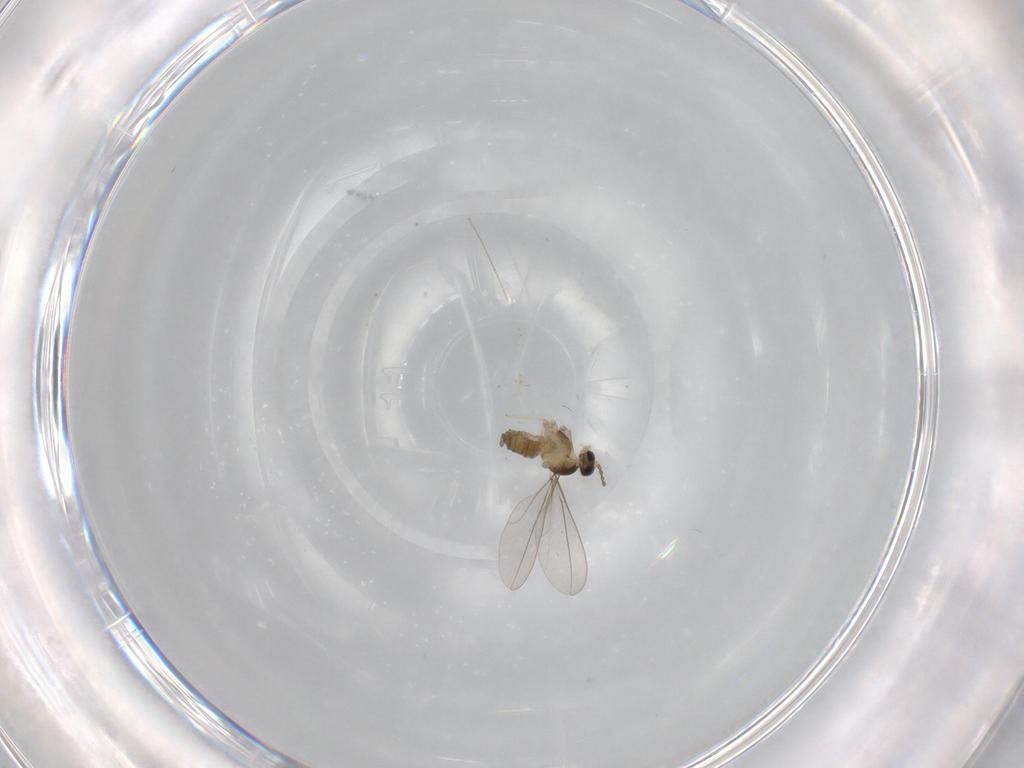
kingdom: Animalia
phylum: Arthropoda
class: Insecta
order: Diptera
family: Cecidomyiidae
